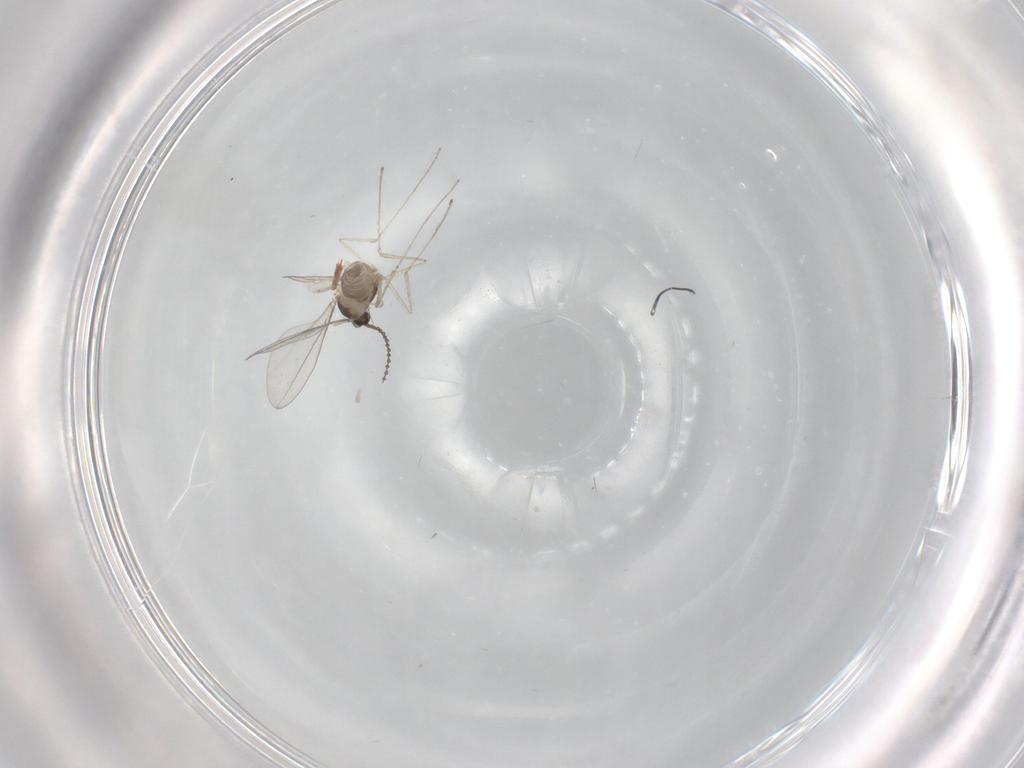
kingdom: Animalia
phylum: Arthropoda
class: Insecta
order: Diptera
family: Cecidomyiidae
